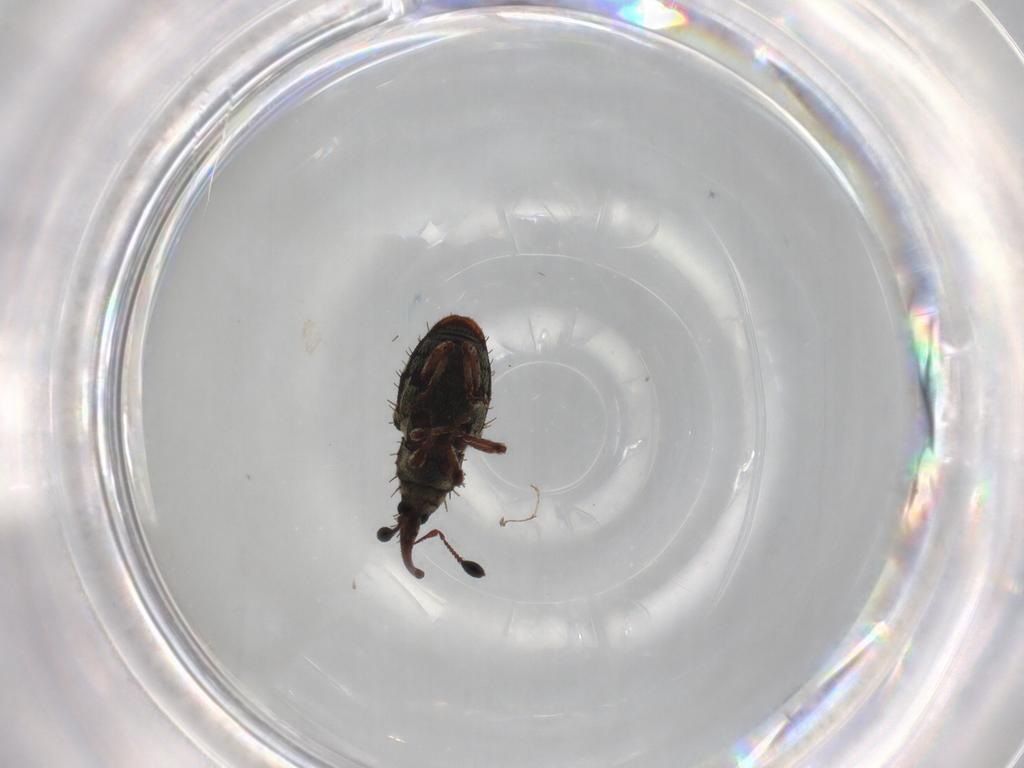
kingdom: Animalia
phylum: Arthropoda
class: Insecta
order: Coleoptera
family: Curculionidae
